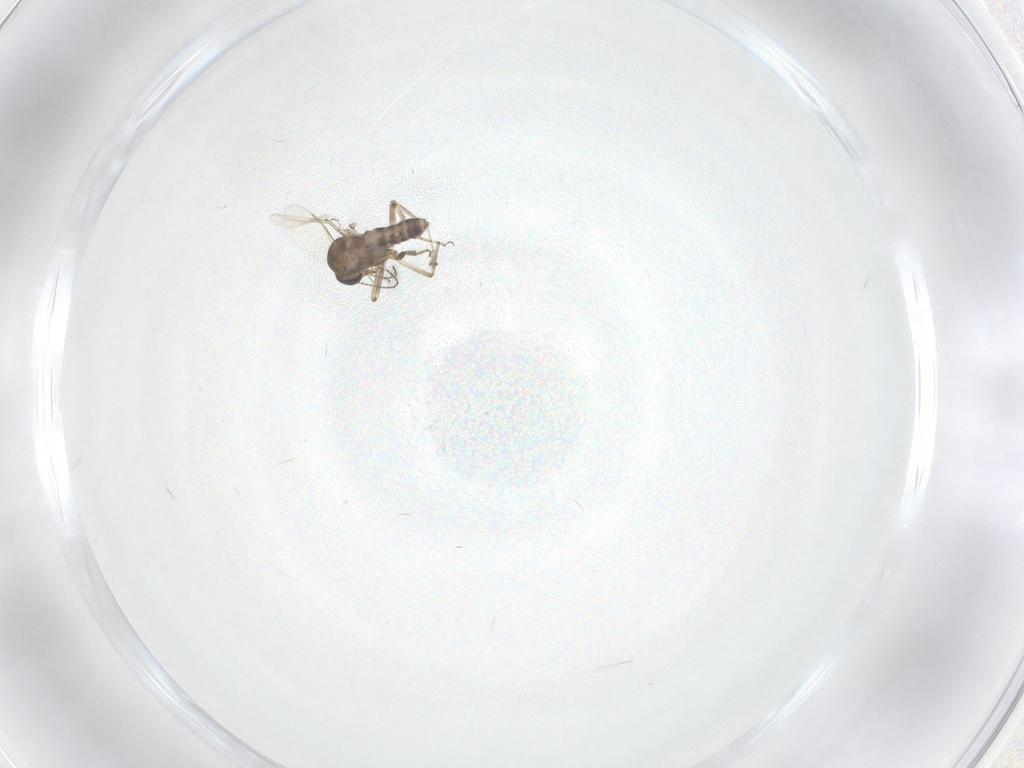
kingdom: Animalia
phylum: Arthropoda
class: Insecta
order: Diptera
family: Ceratopogonidae
